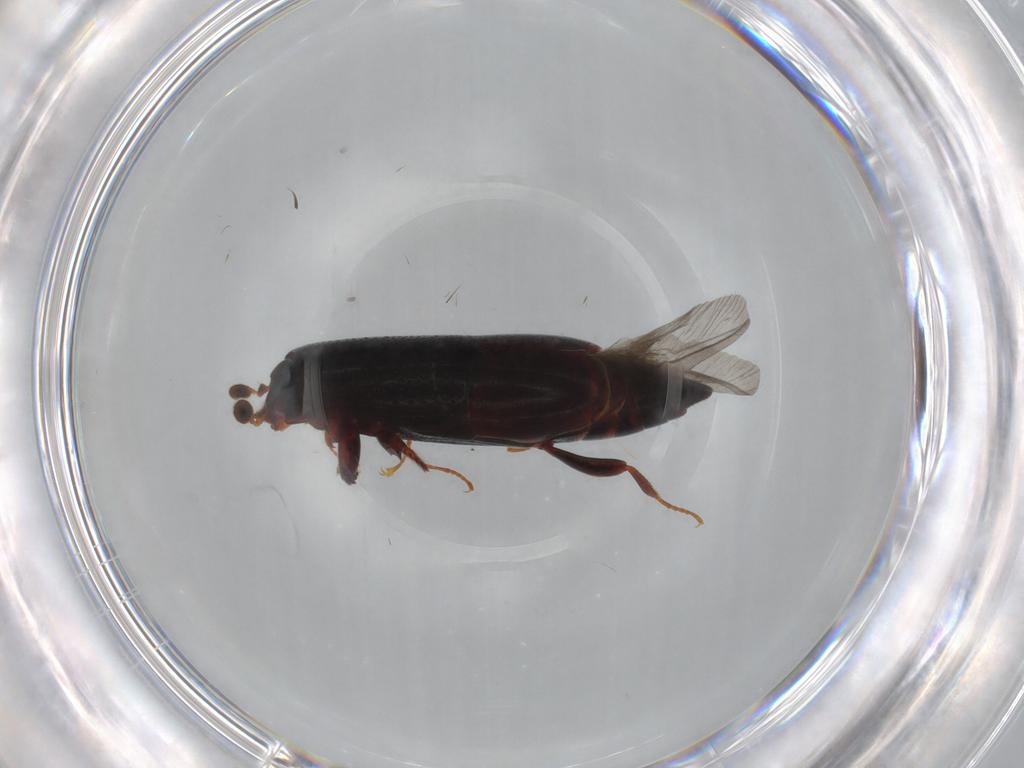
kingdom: Animalia
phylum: Arthropoda
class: Insecta
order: Coleoptera
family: Histeridae
